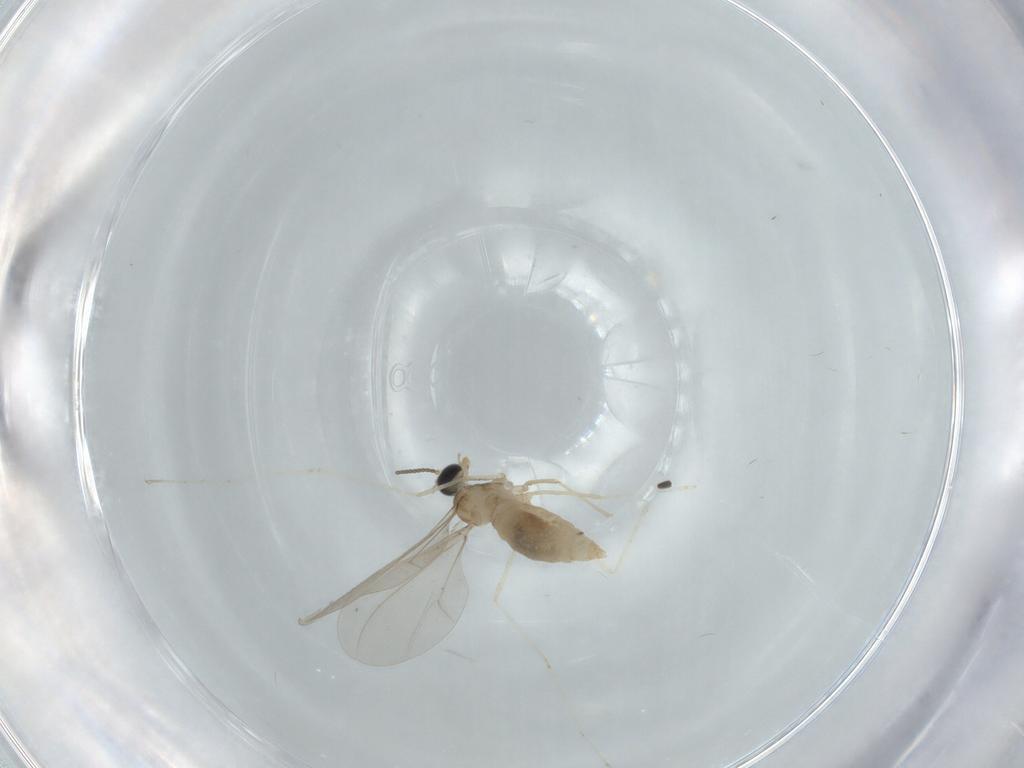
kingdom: Animalia
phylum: Arthropoda
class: Insecta
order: Diptera
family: Cecidomyiidae
